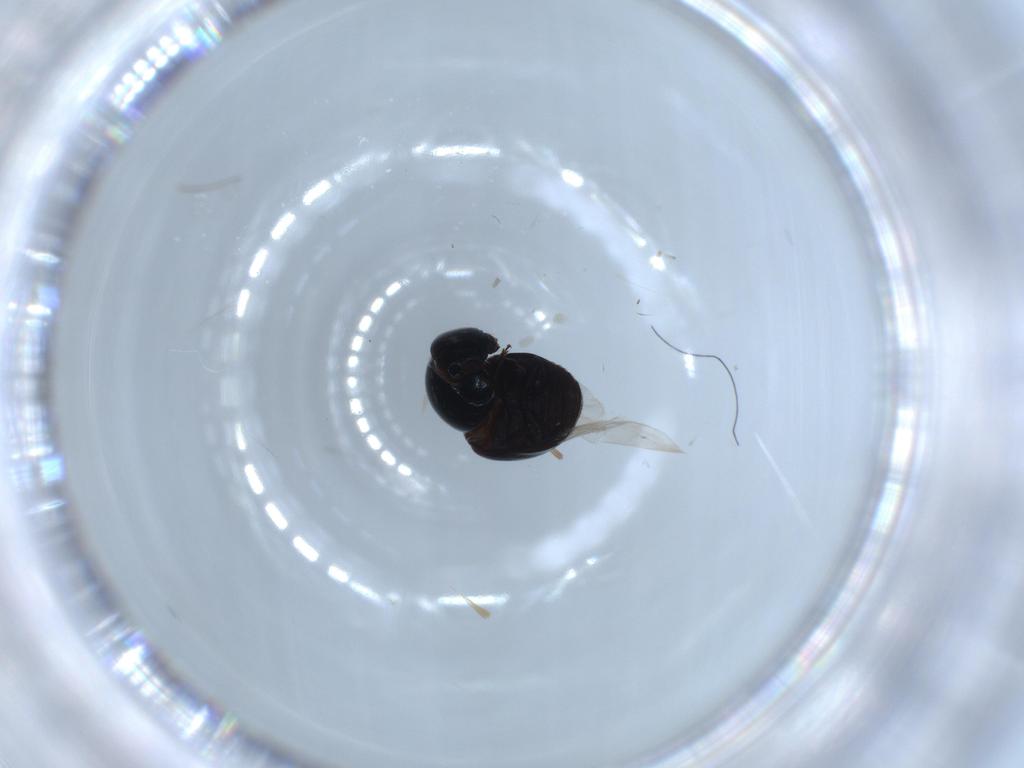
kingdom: Animalia
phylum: Arthropoda
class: Insecta
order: Coleoptera
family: Cybocephalidae
